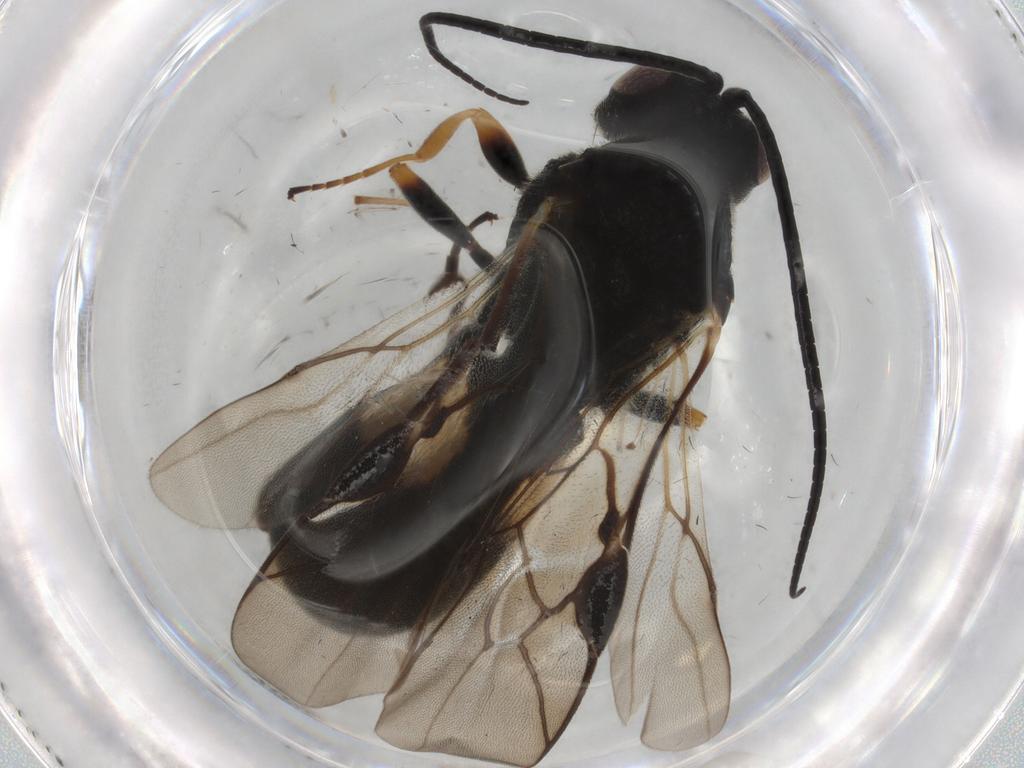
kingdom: Animalia
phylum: Arthropoda
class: Insecta
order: Hymenoptera
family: Braconidae
